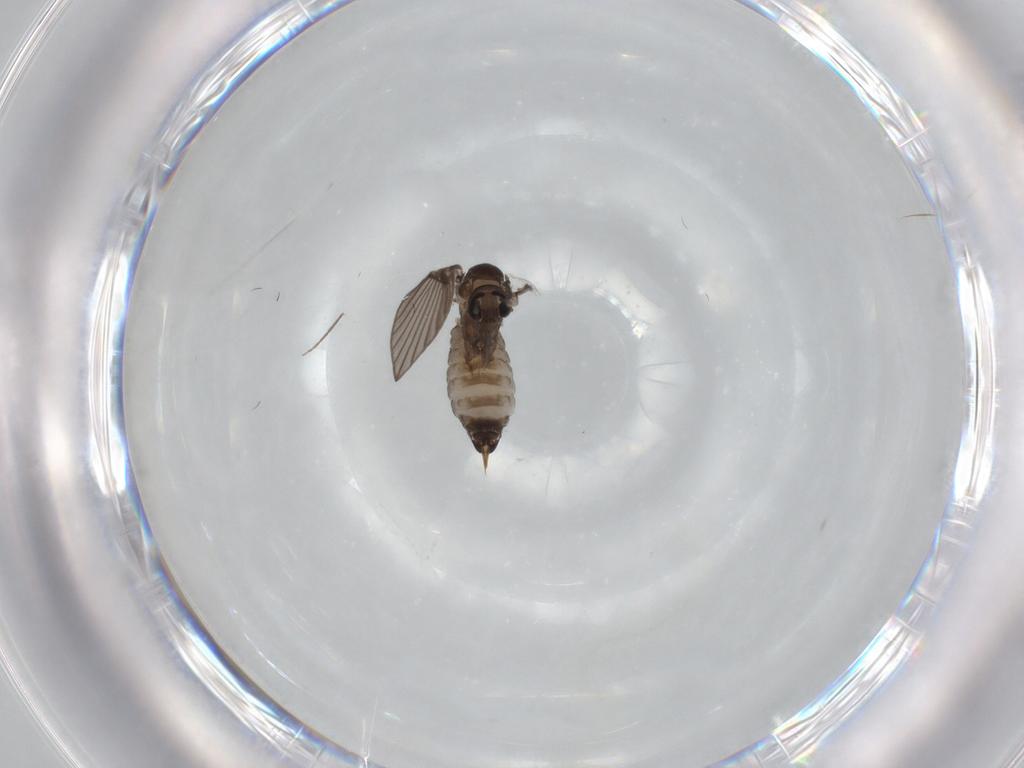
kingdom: Animalia
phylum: Arthropoda
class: Insecta
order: Diptera
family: Psychodidae
